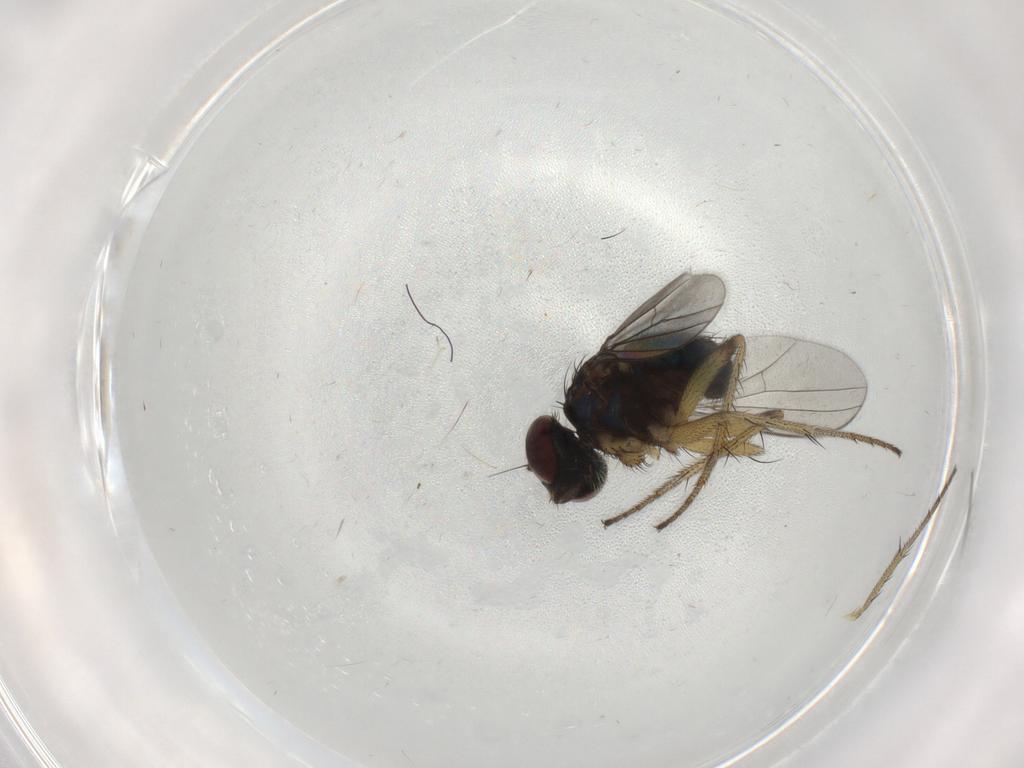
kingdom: Animalia
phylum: Arthropoda
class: Insecta
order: Diptera
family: Dolichopodidae
